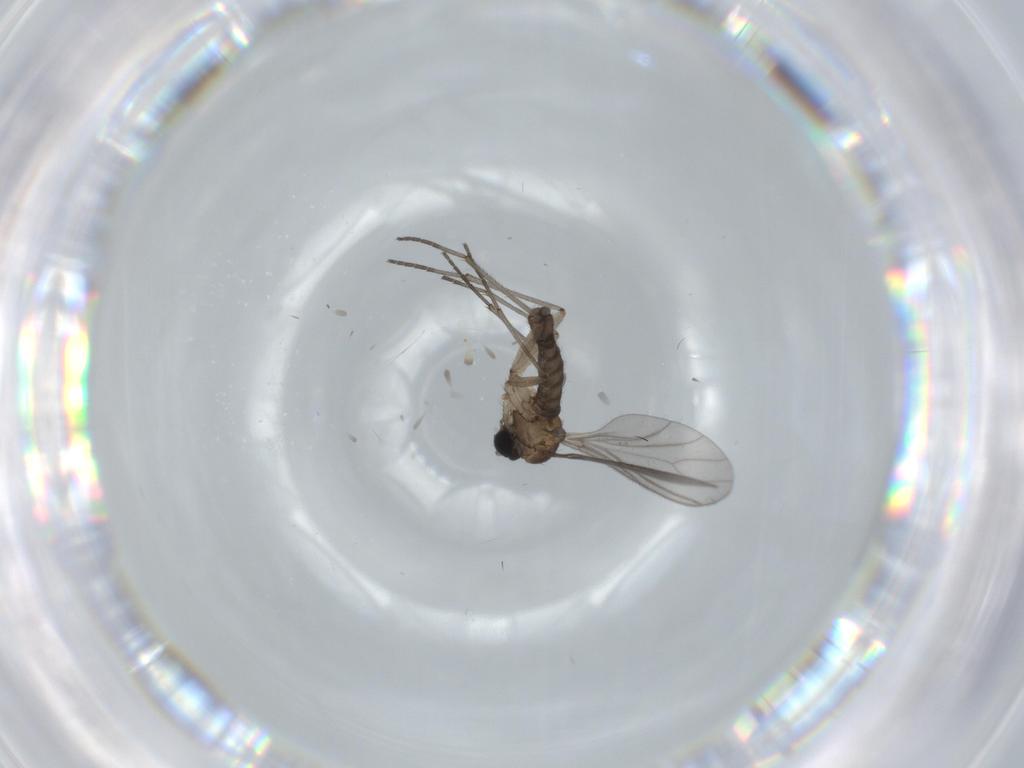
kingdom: Animalia
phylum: Arthropoda
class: Insecta
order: Diptera
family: Sciaridae
